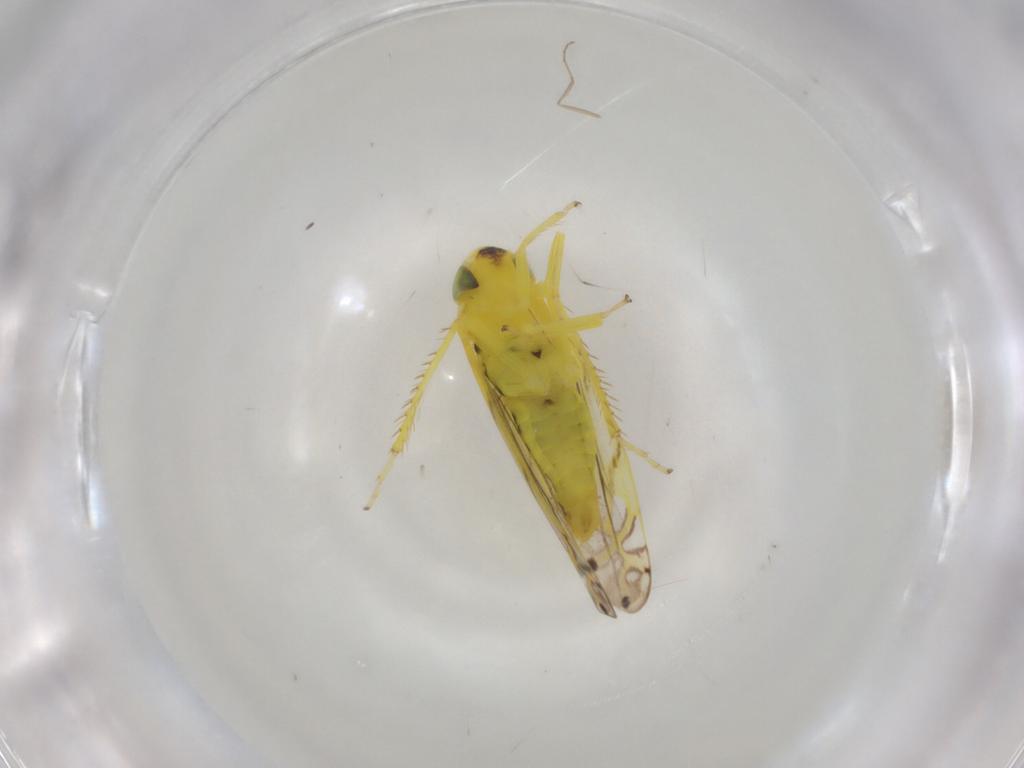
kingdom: Animalia
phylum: Arthropoda
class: Insecta
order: Hemiptera
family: Cicadellidae
